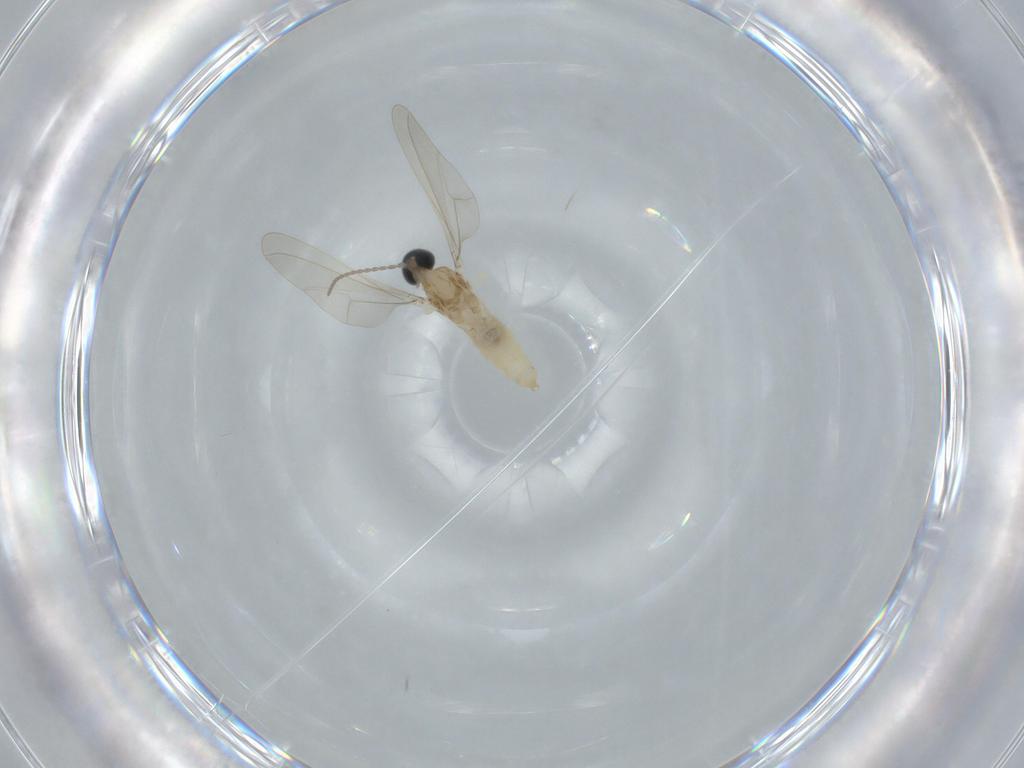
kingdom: Animalia
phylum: Arthropoda
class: Insecta
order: Diptera
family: Cecidomyiidae
